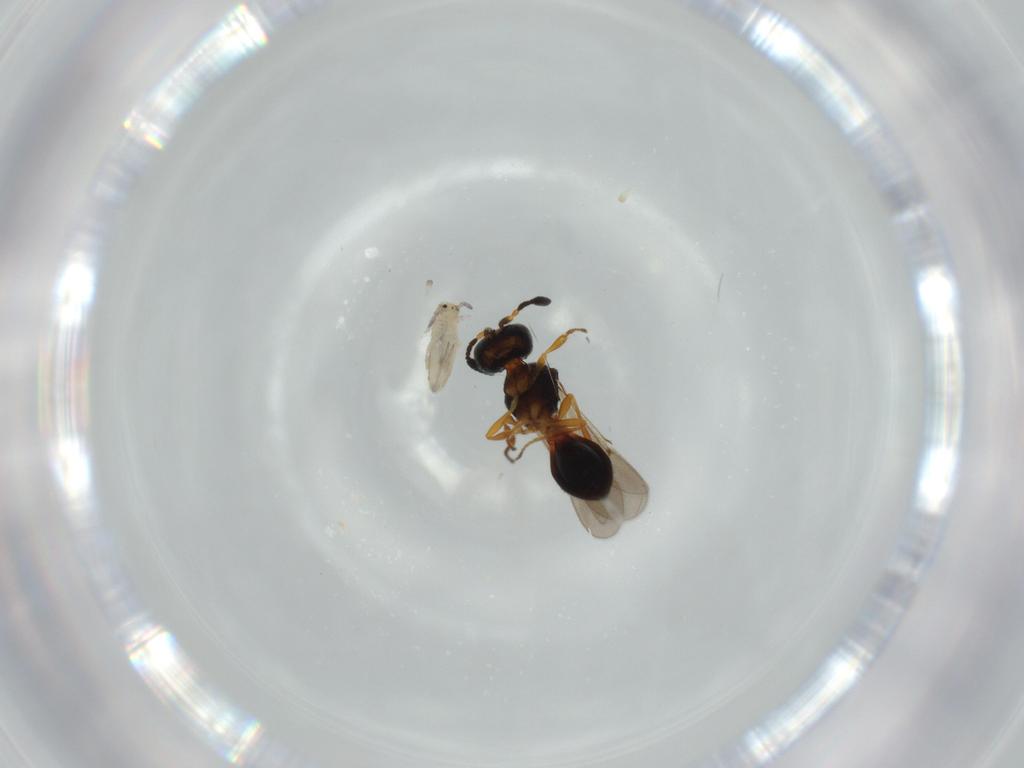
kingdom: Animalia
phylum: Arthropoda
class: Insecta
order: Hymenoptera
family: Scelionidae
